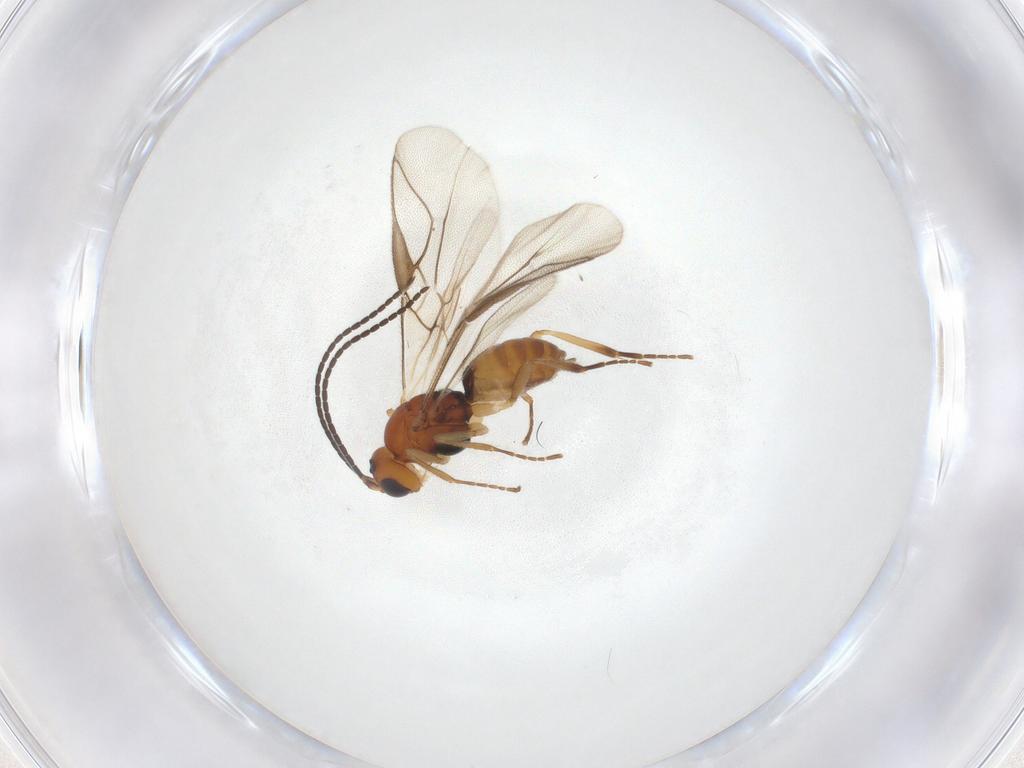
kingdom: Animalia
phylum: Arthropoda
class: Insecta
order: Hymenoptera
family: Braconidae
